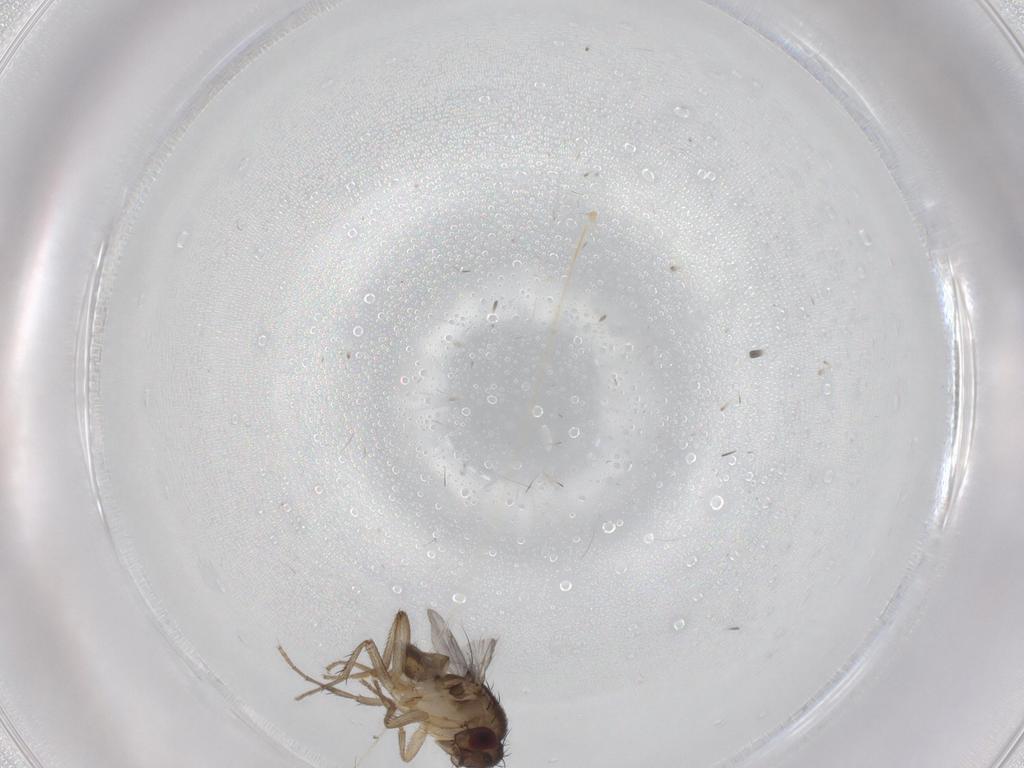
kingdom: Animalia
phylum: Arthropoda
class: Insecta
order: Diptera
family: Sphaeroceridae
